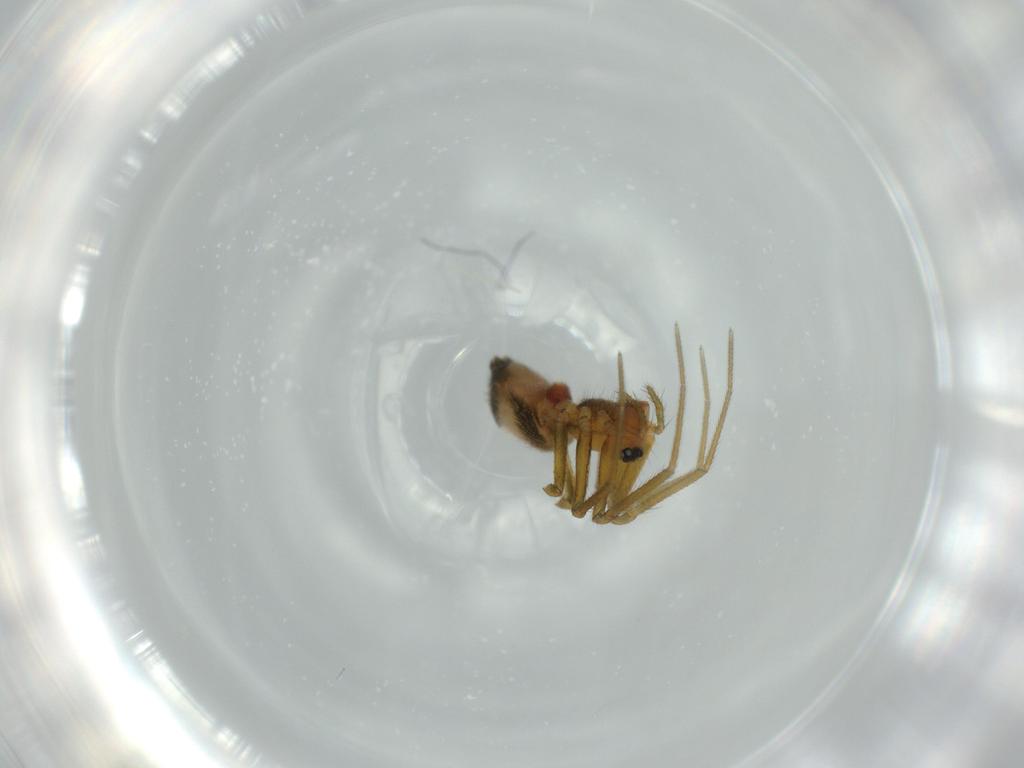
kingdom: Animalia
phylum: Arthropoda
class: Arachnida
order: Araneae
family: Linyphiidae
